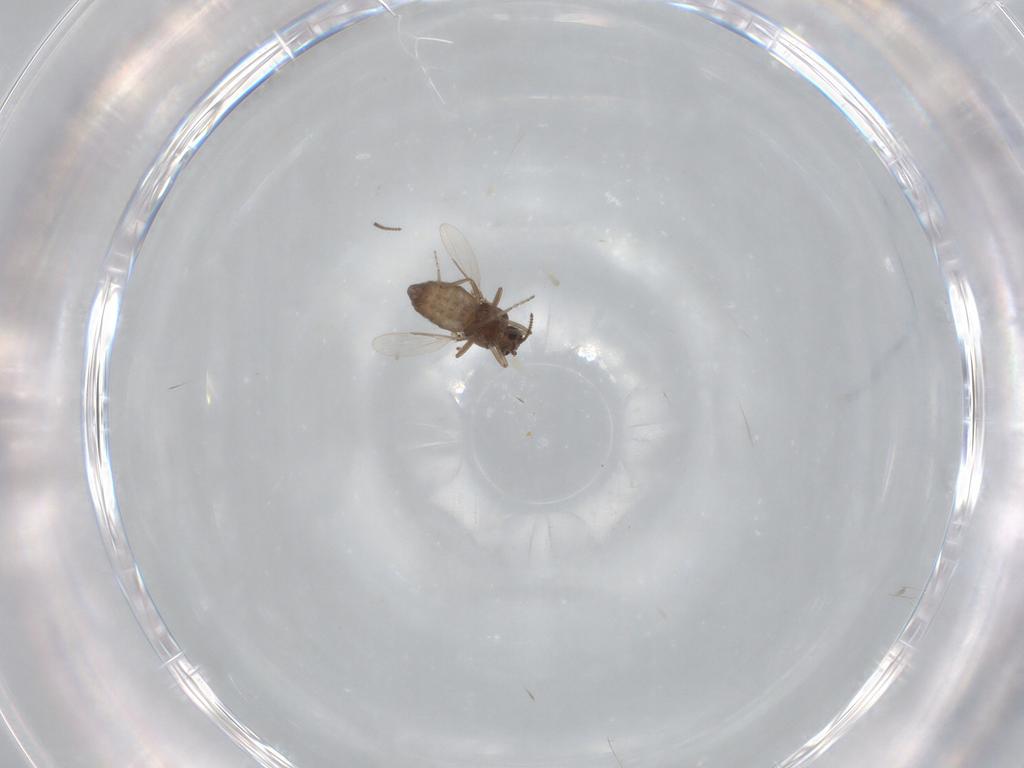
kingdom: Animalia
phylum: Arthropoda
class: Insecta
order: Diptera
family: Ceratopogonidae
